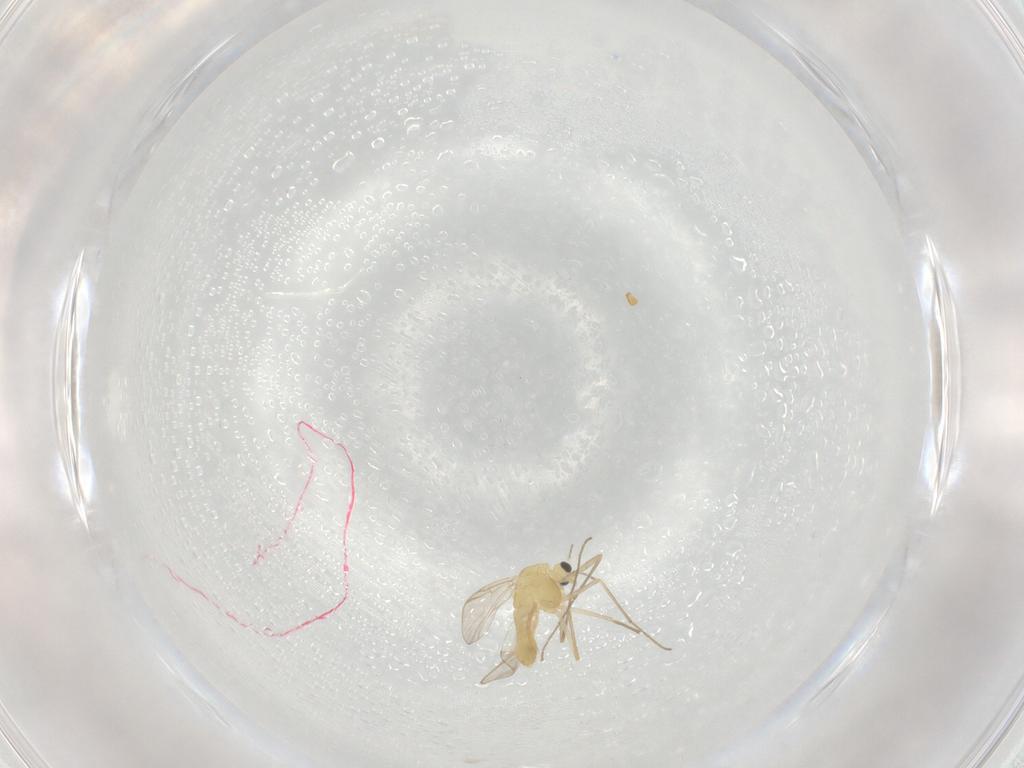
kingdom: Animalia
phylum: Arthropoda
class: Insecta
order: Diptera
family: Chironomidae
